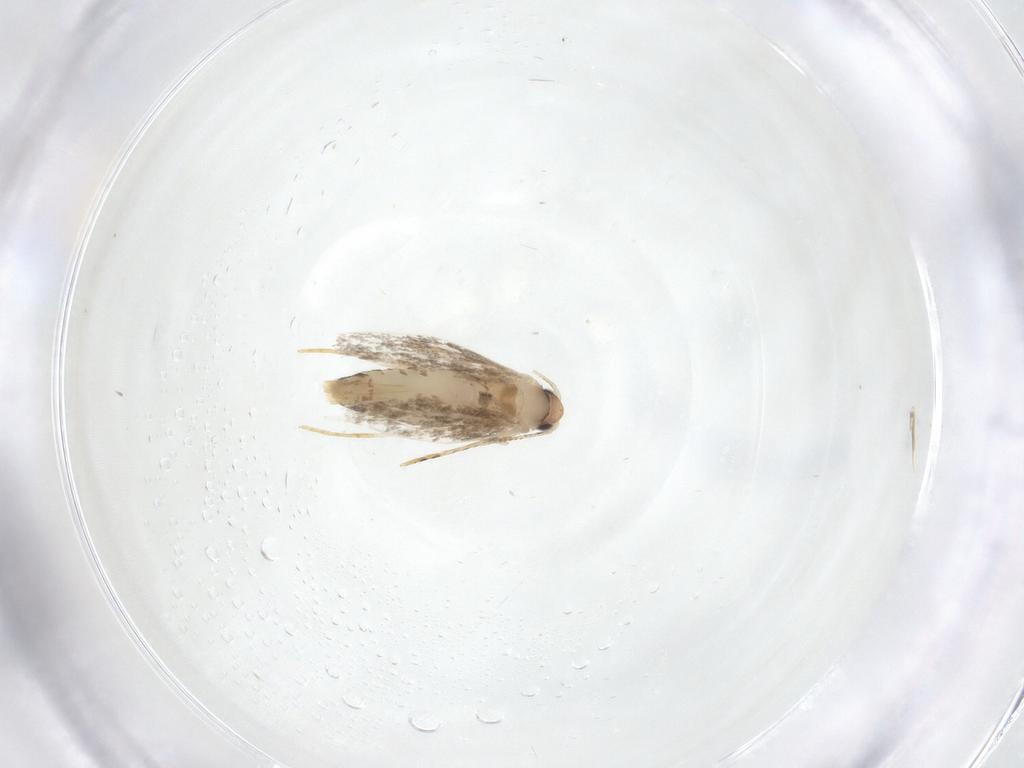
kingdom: Animalia
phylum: Arthropoda
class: Insecta
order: Lepidoptera
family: Tineidae
